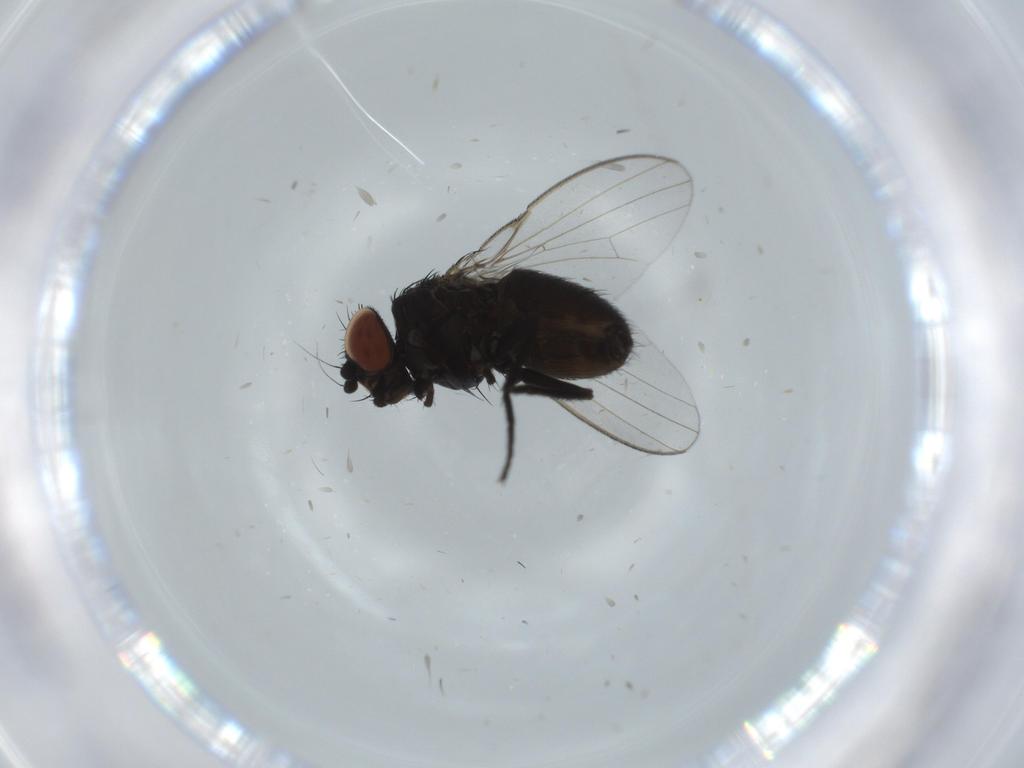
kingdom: Animalia
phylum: Arthropoda
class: Insecta
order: Diptera
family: Milichiidae
